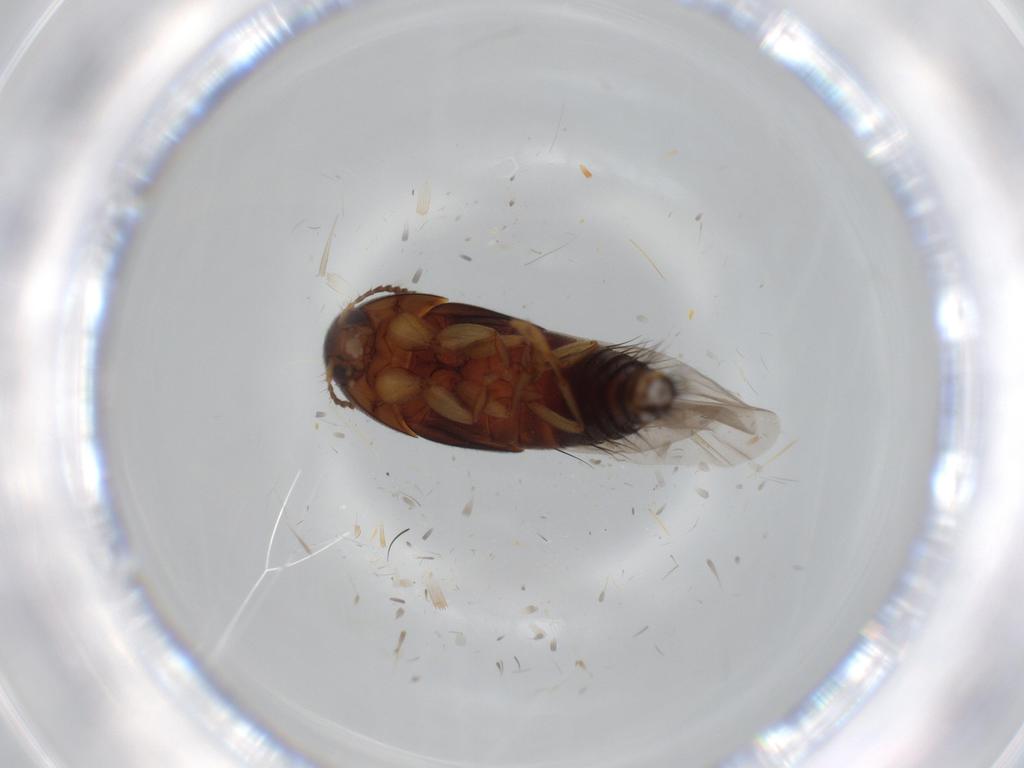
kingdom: Animalia
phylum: Arthropoda
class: Insecta
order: Coleoptera
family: Staphylinidae
